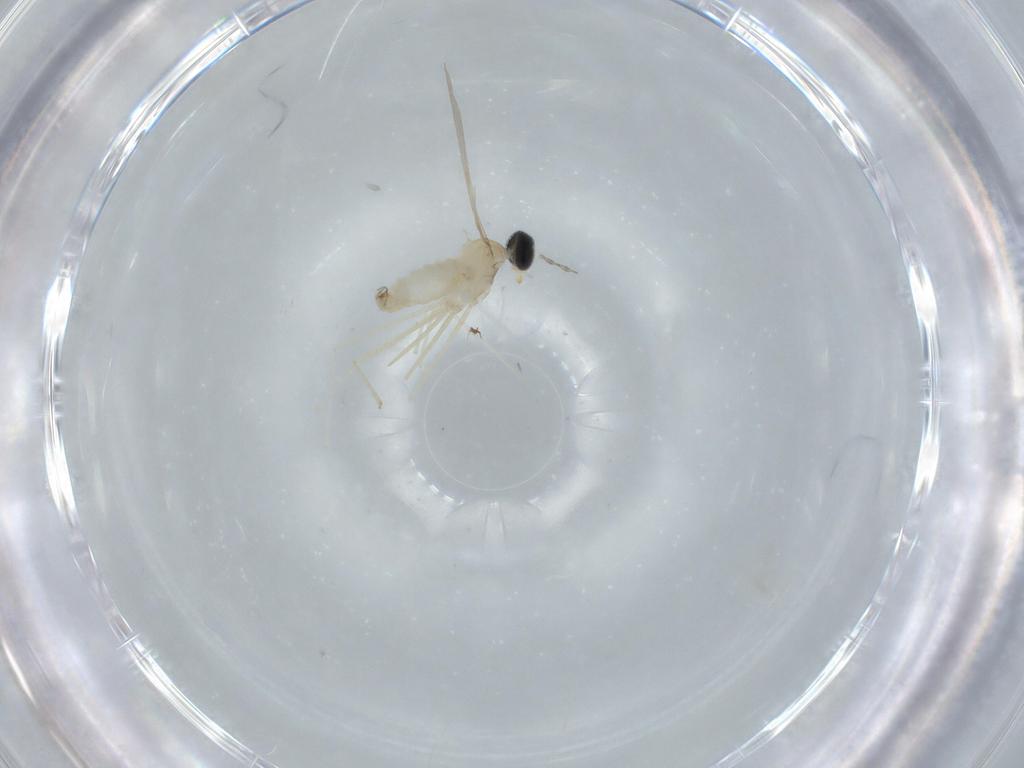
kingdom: Animalia
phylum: Arthropoda
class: Insecta
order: Diptera
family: Cecidomyiidae
